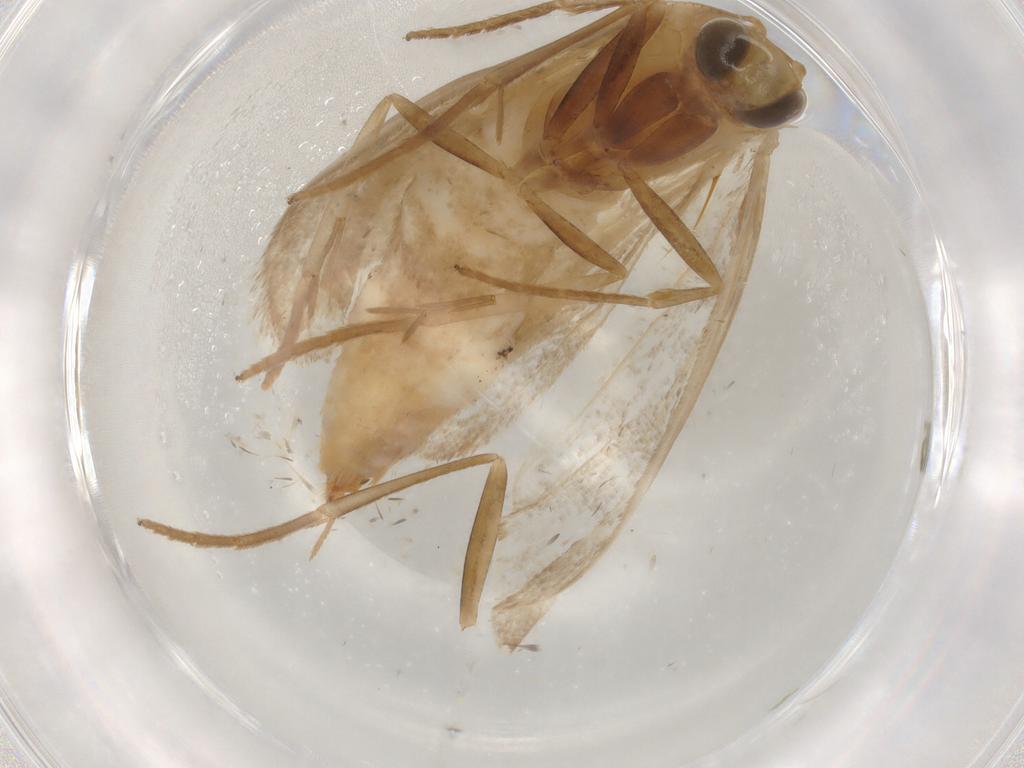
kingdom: Animalia
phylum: Arthropoda
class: Insecta
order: Lepidoptera
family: Pyralidae
